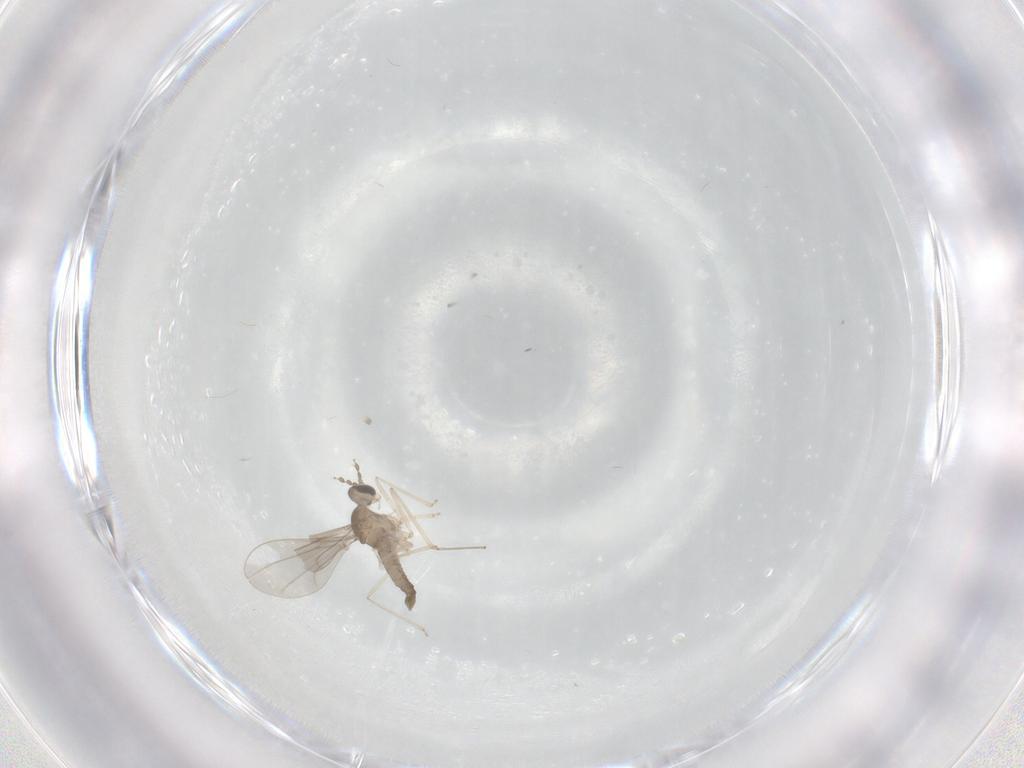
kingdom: Animalia
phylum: Arthropoda
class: Insecta
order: Diptera
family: Cecidomyiidae
